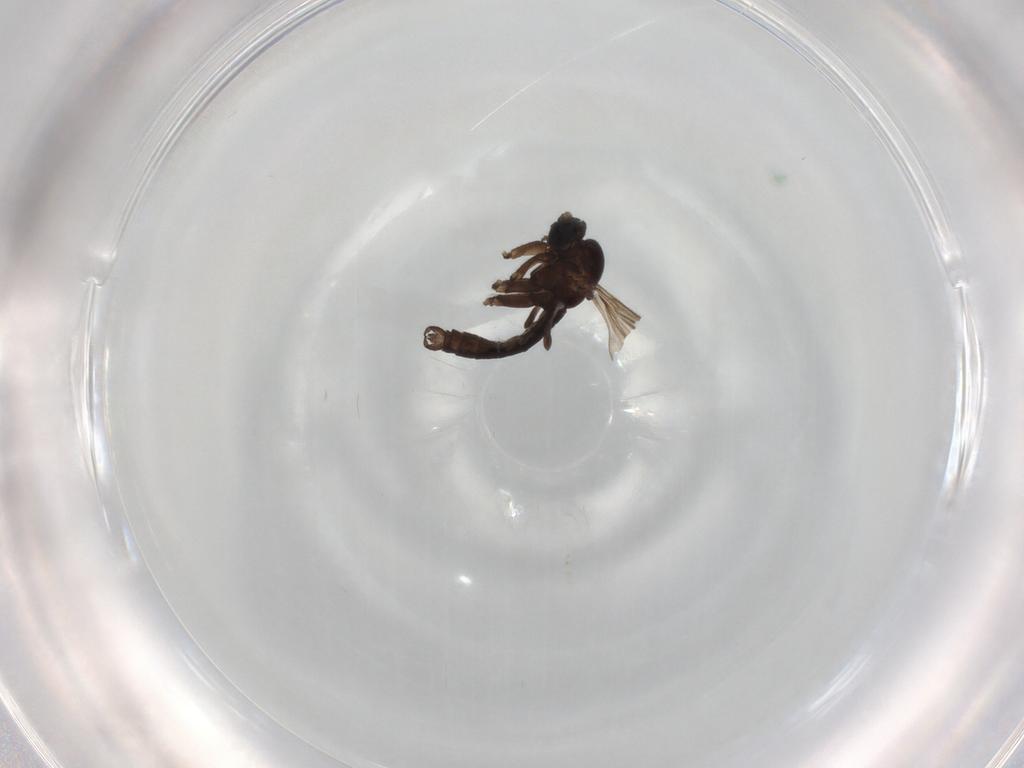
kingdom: Animalia
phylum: Arthropoda
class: Insecta
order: Diptera
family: Sciaridae
